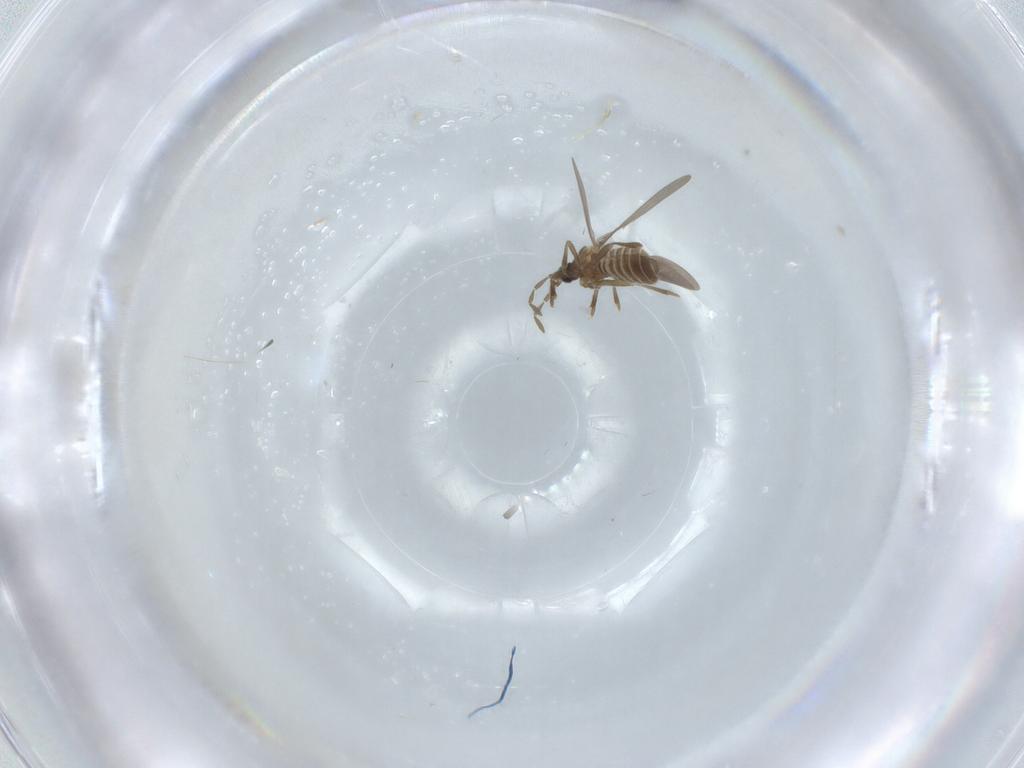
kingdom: Animalia
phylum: Arthropoda
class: Insecta
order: Hemiptera
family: Enicocephalidae
